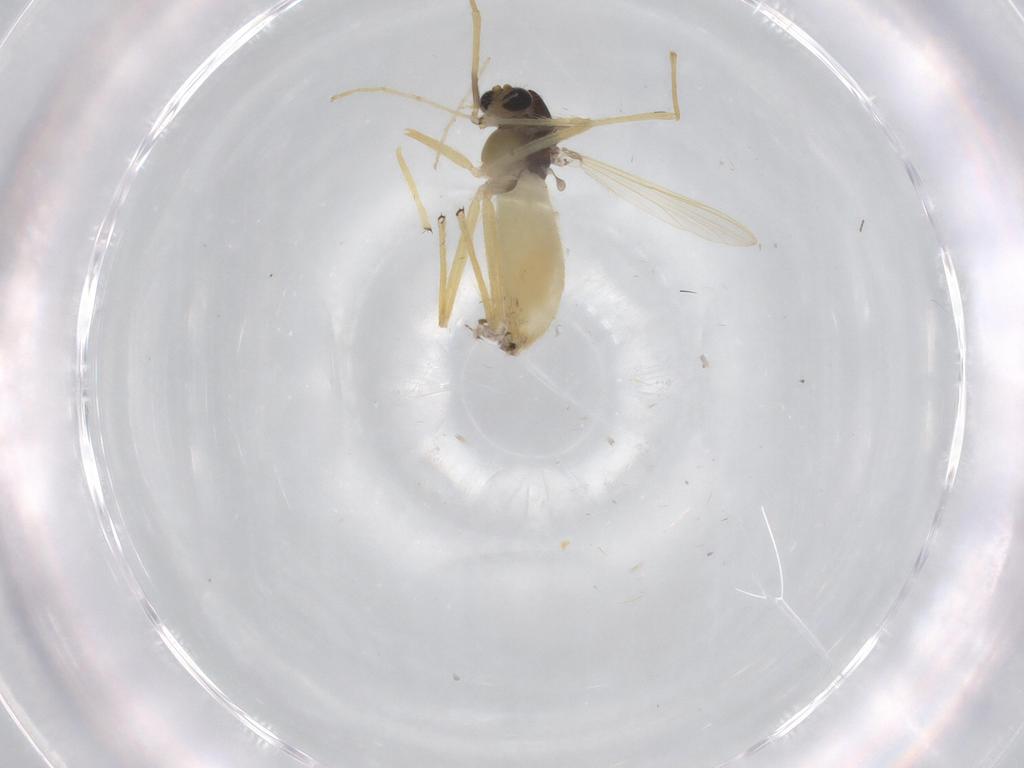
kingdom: Animalia
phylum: Arthropoda
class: Insecta
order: Diptera
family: Chironomidae
